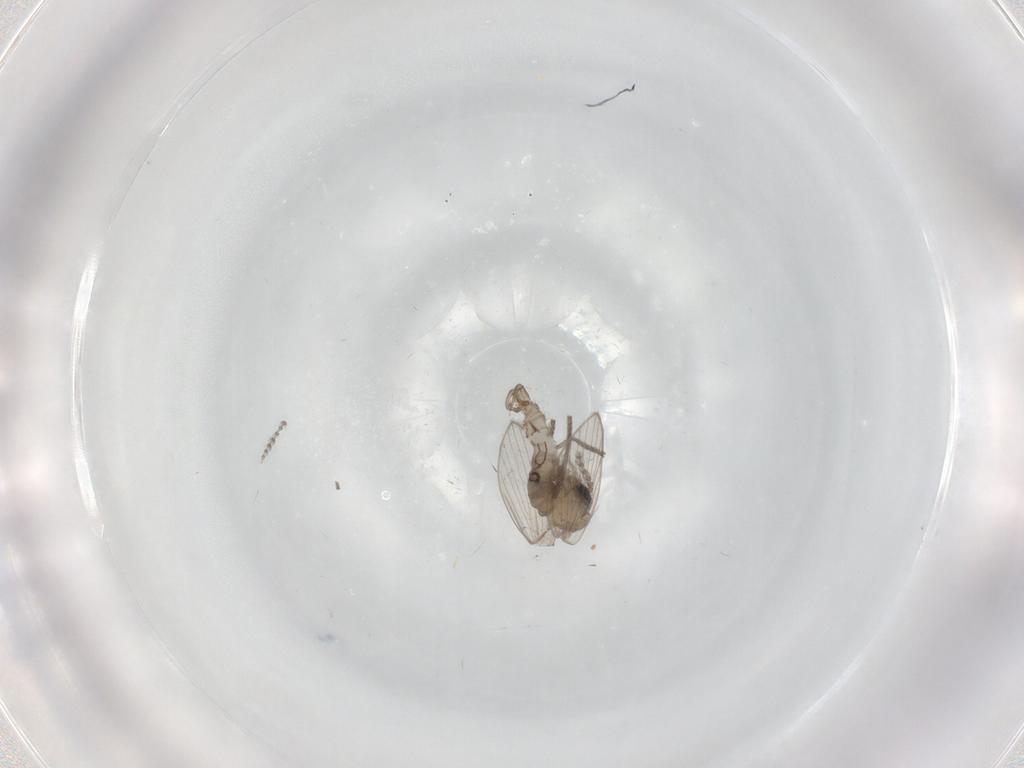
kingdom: Animalia
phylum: Arthropoda
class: Insecta
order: Diptera
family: Psychodidae
